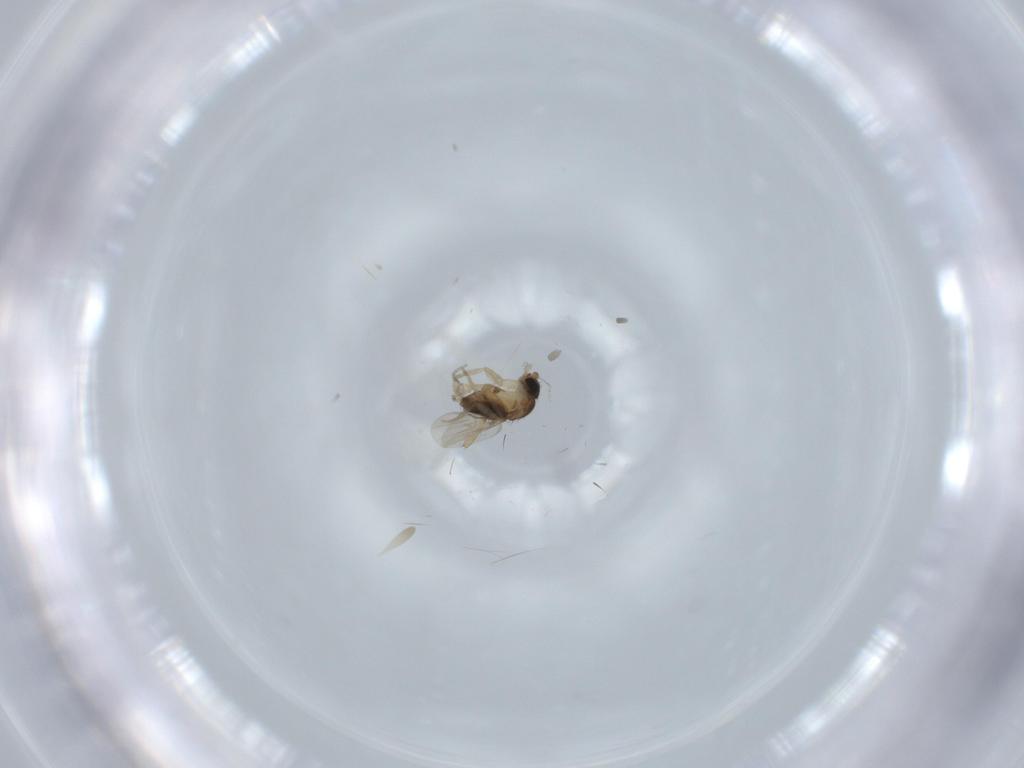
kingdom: Animalia
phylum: Arthropoda
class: Insecta
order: Diptera
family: Phoridae
